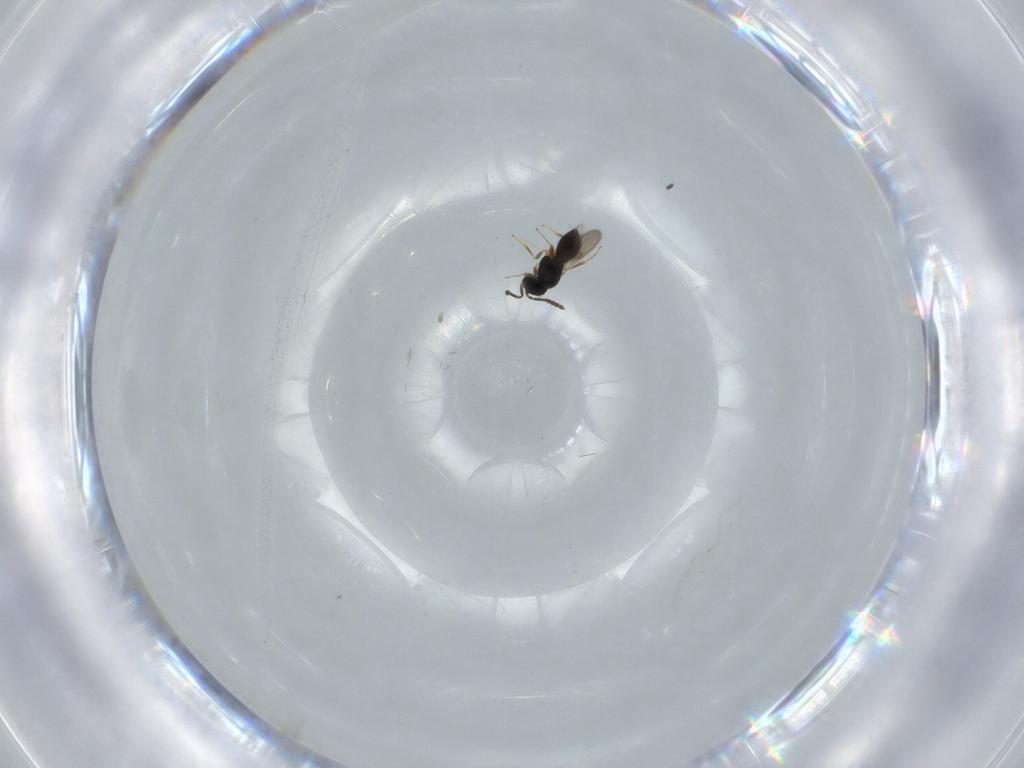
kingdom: Animalia
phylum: Arthropoda
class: Insecta
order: Hymenoptera
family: Scelionidae
